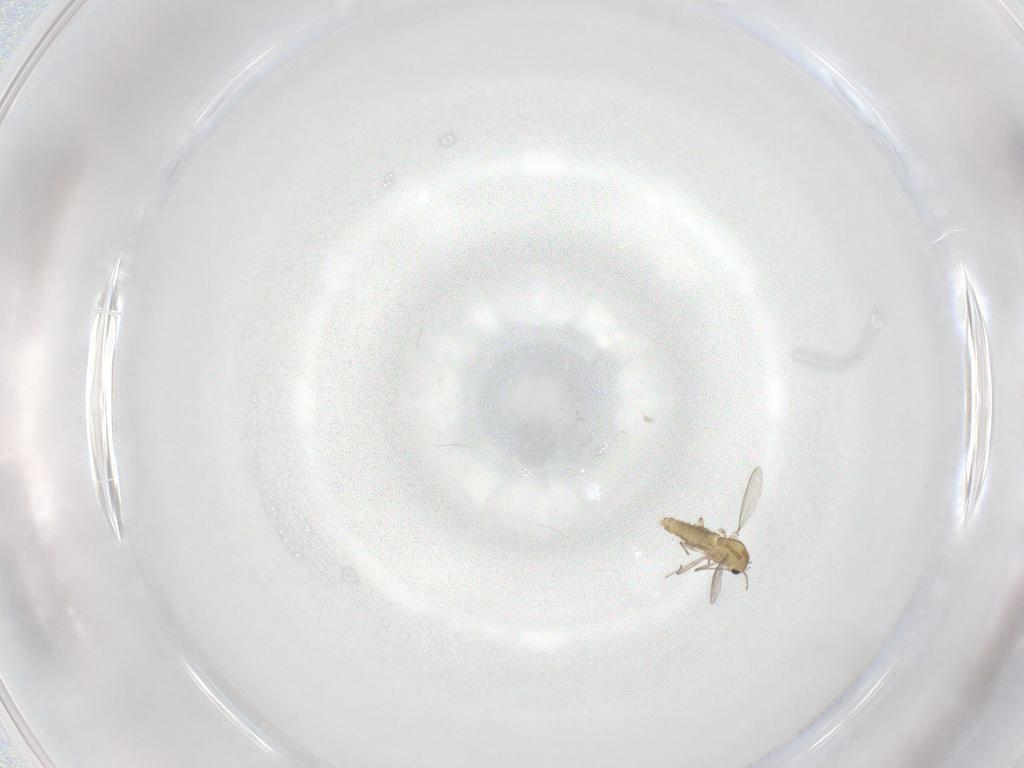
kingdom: Animalia
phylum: Arthropoda
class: Insecta
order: Diptera
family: Chironomidae
